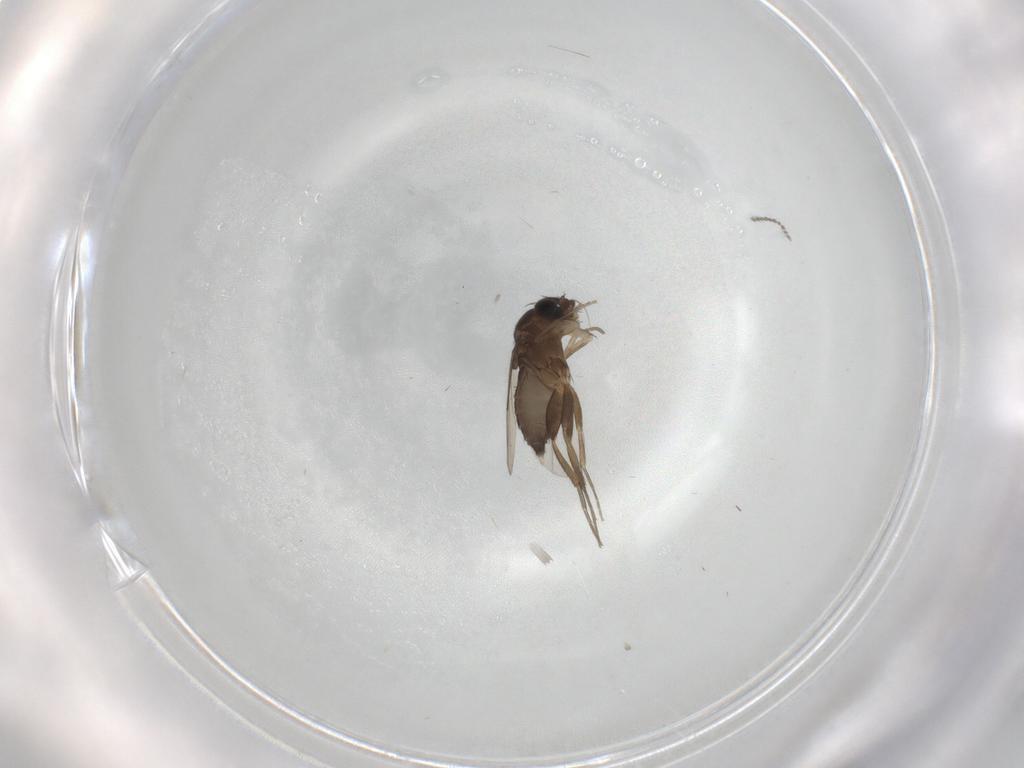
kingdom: Animalia
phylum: Arthropoda
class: Insecta
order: Diptera
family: Phoridae
